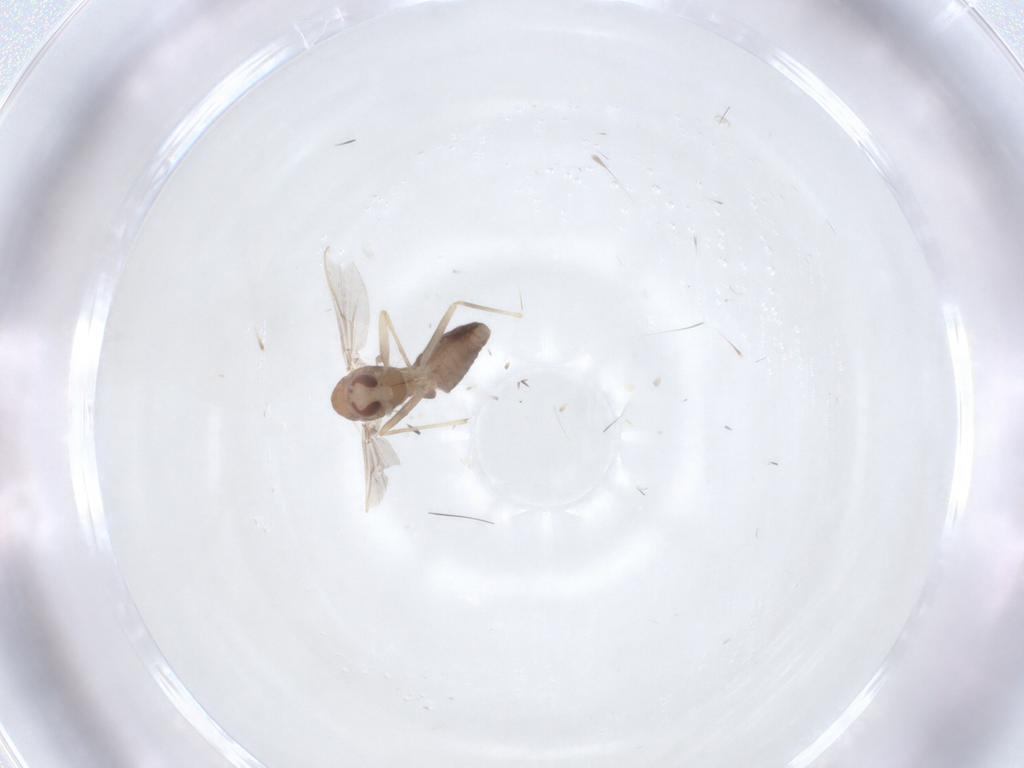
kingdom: Animalia
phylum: Arthropoda
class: Insecta
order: Diptera
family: Chironomidae
